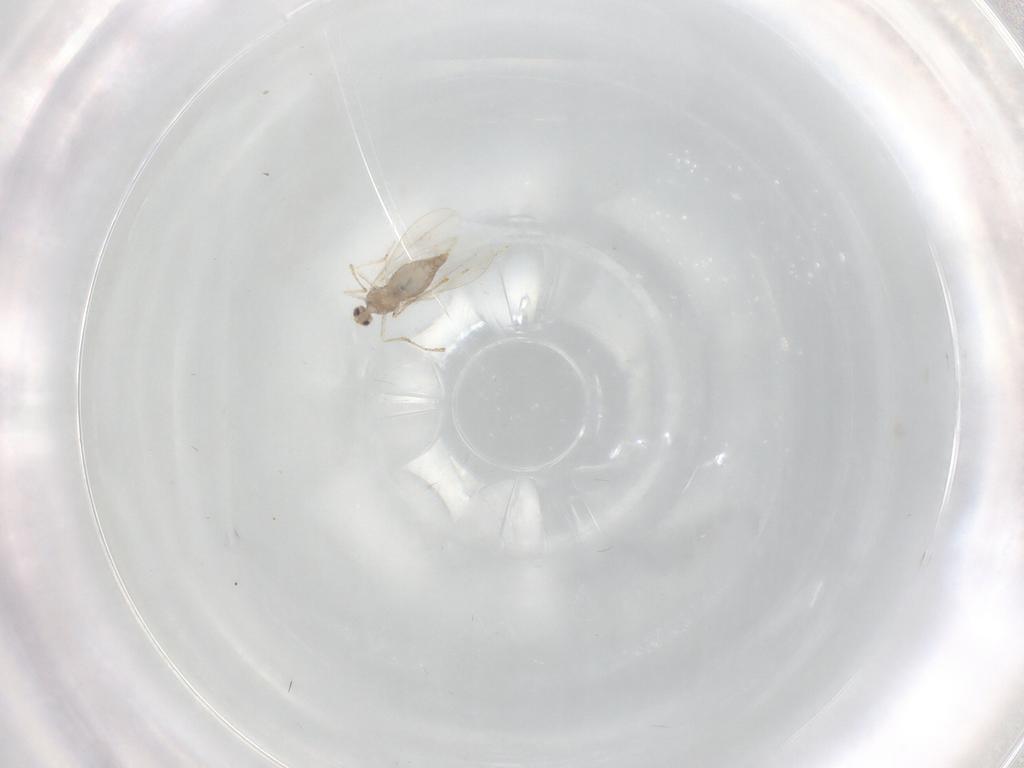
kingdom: Animalia
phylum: Arthropoda
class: Insecta
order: Diptera
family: Cecidomyiidae
